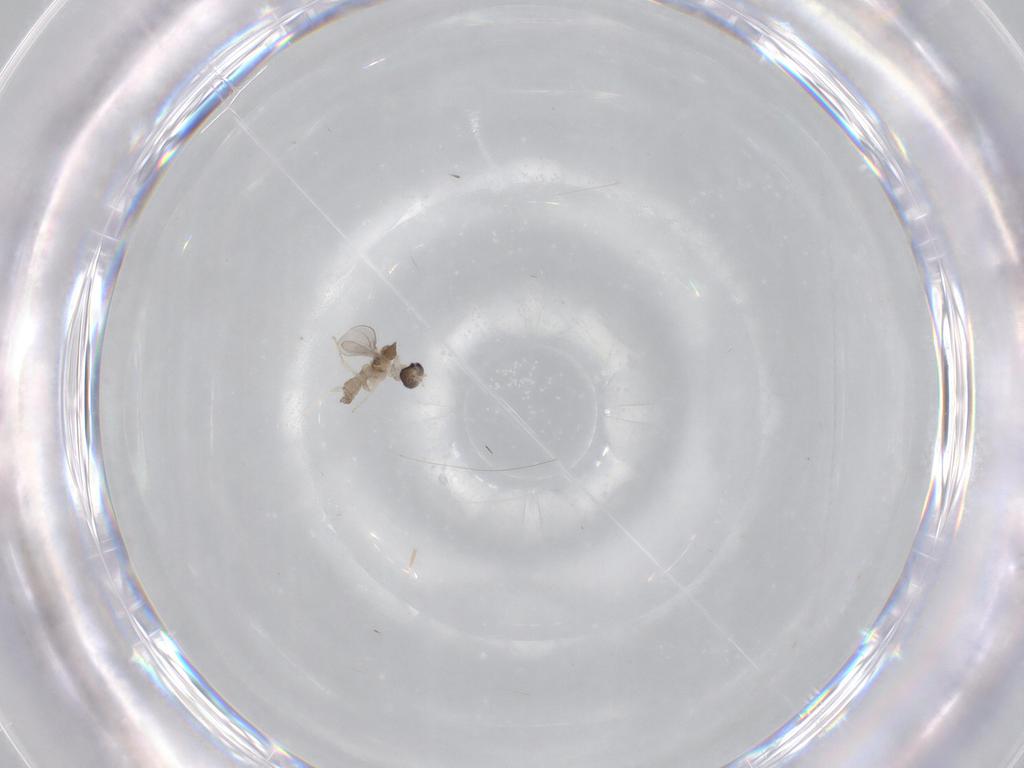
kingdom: Animalia
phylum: Arthropoda
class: Insecta
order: Diptera
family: Cecidomyiidae
